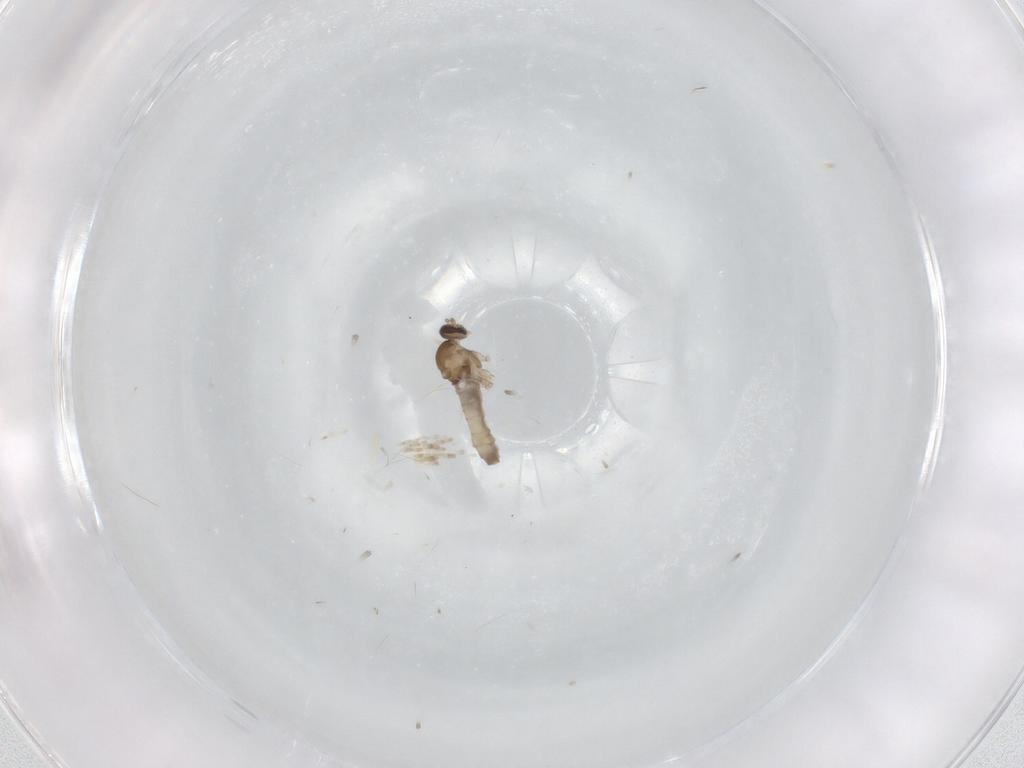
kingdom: Animalia
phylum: Arthropoda
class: Insecta
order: Diptera
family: Cecidomyiidae
